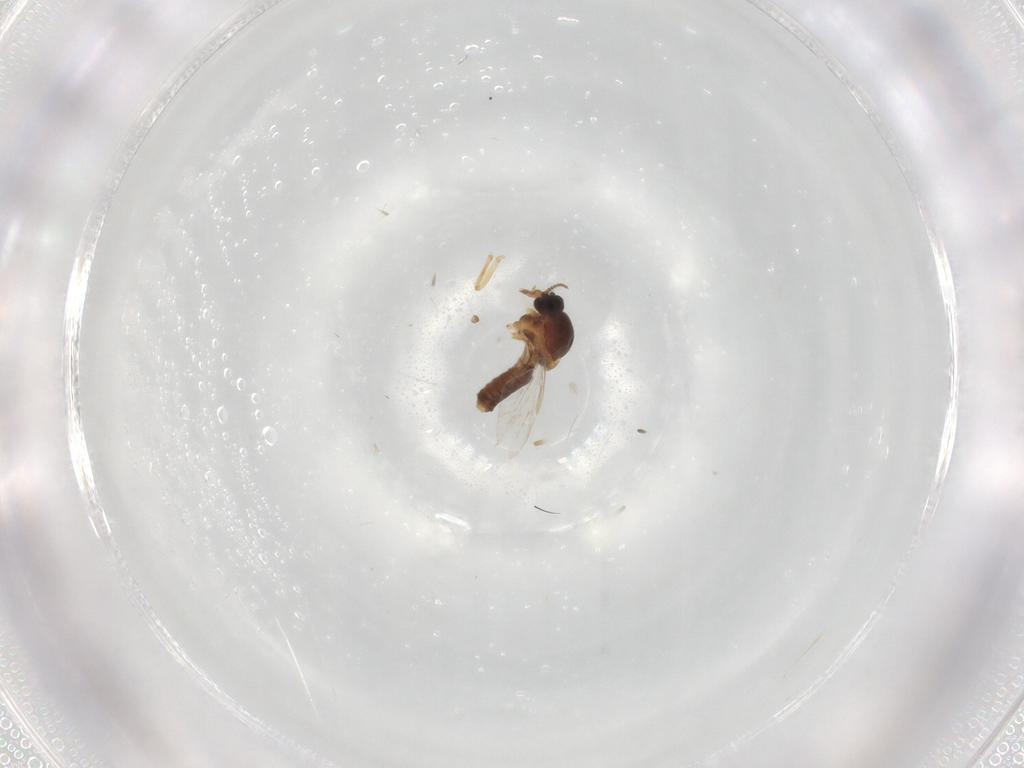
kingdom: Animalia
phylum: Arthropoda
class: Insecta
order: Diptera
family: Ceratopogonidae
